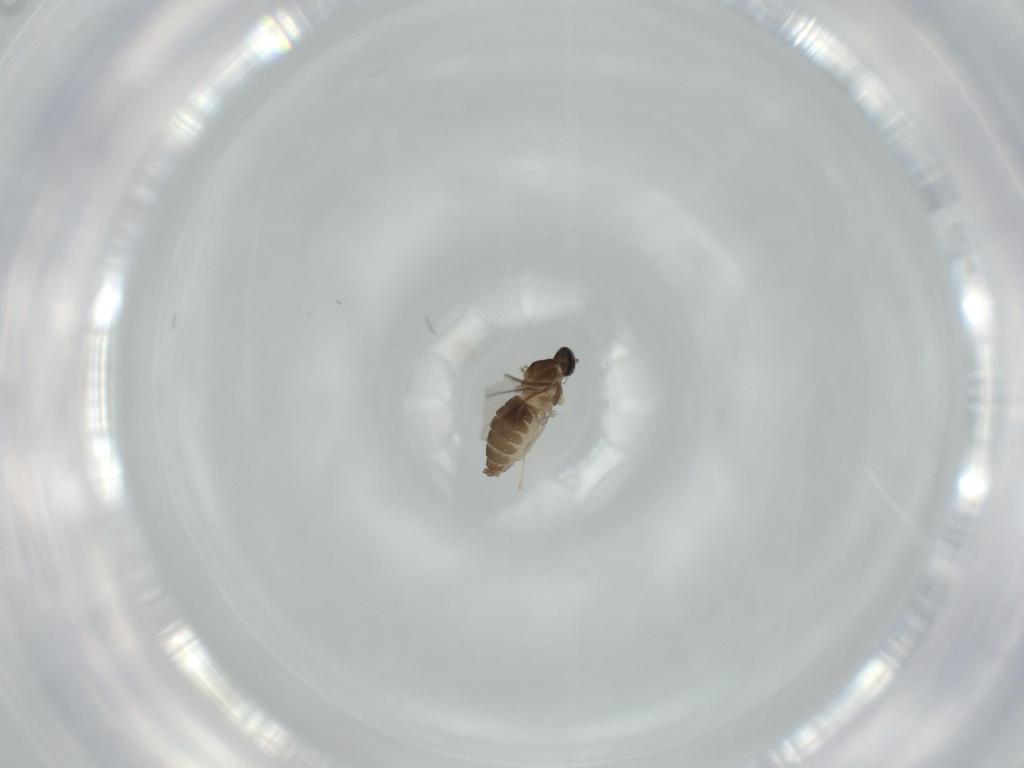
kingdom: Animalia
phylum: Arthropoda
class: Insecta
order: Diptera
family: Cecidomyiidae
